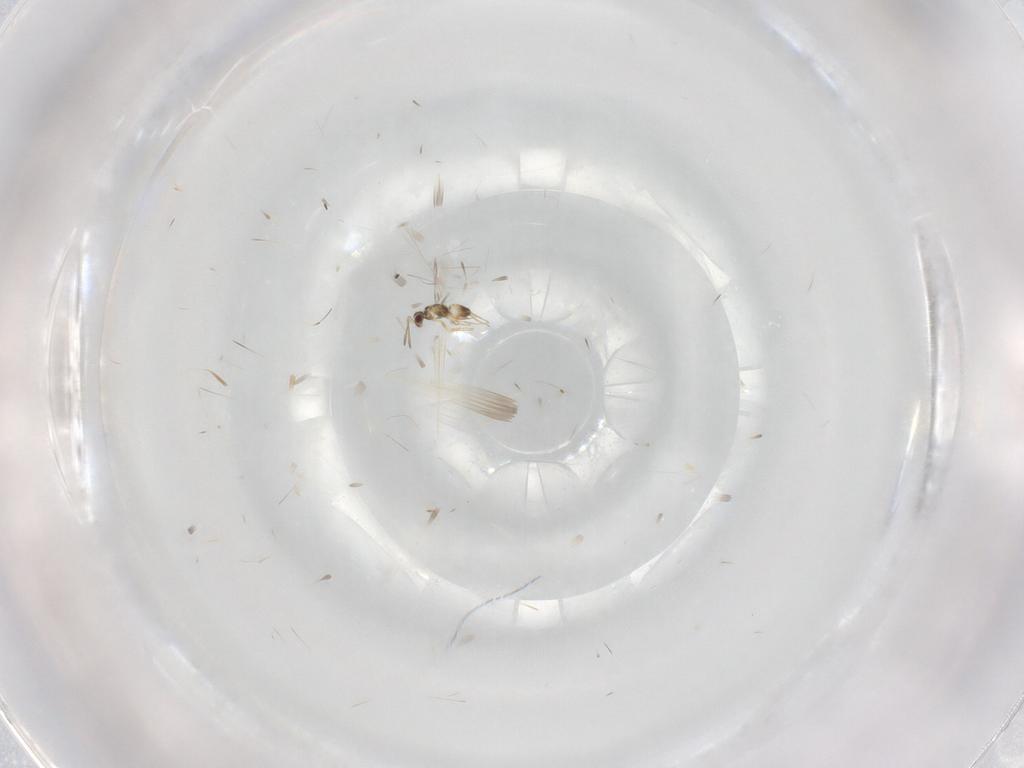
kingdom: Animalia
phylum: Arthropoda
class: Insecta
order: Hymenoptera
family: Mymaridae
